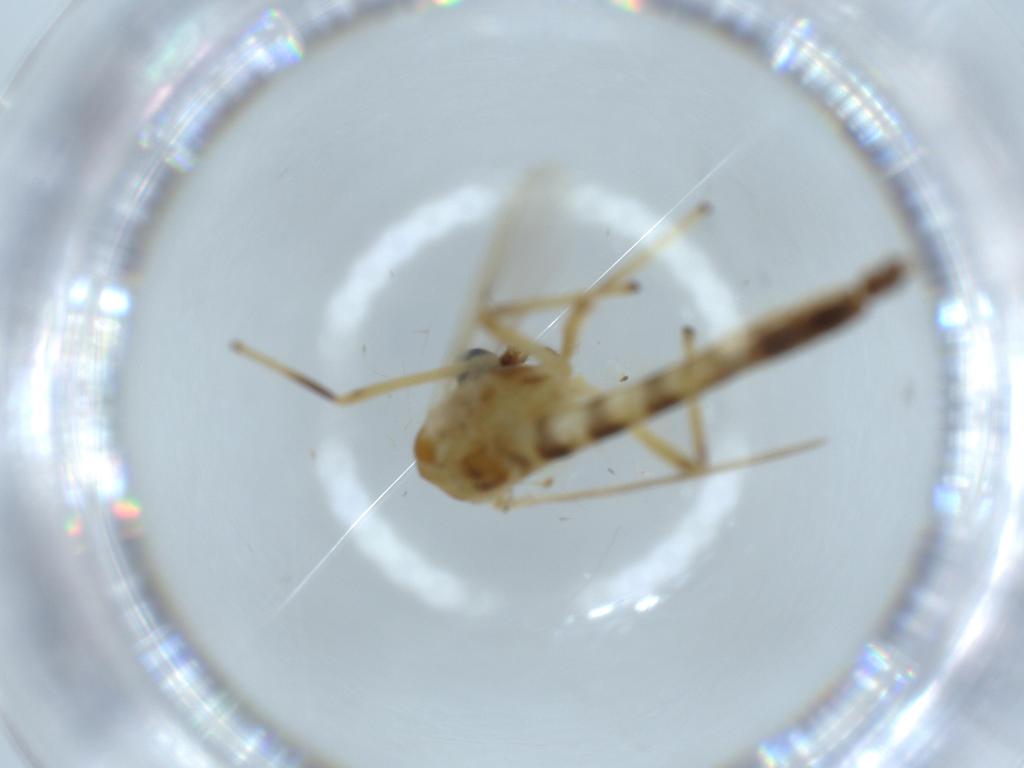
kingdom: Animalia
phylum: Arthropoda
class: Insecta
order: Diptera
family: Chironomidae
